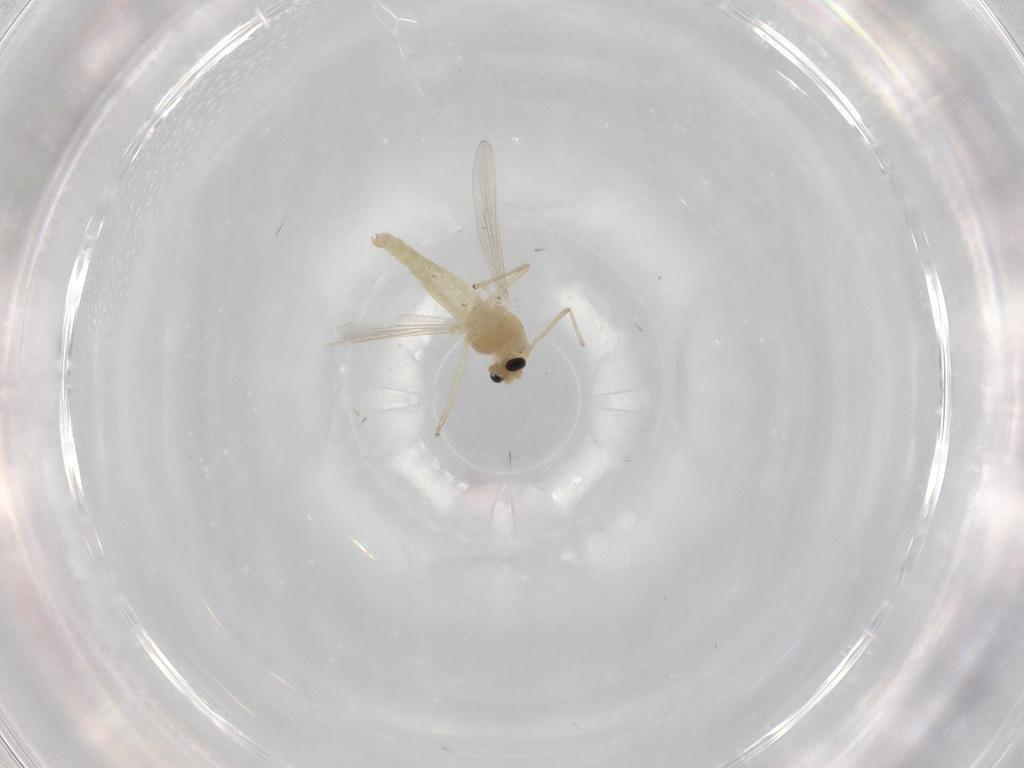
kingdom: Animalia
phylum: Arthropoda
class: Insecta
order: Diptera
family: Chironomidae
